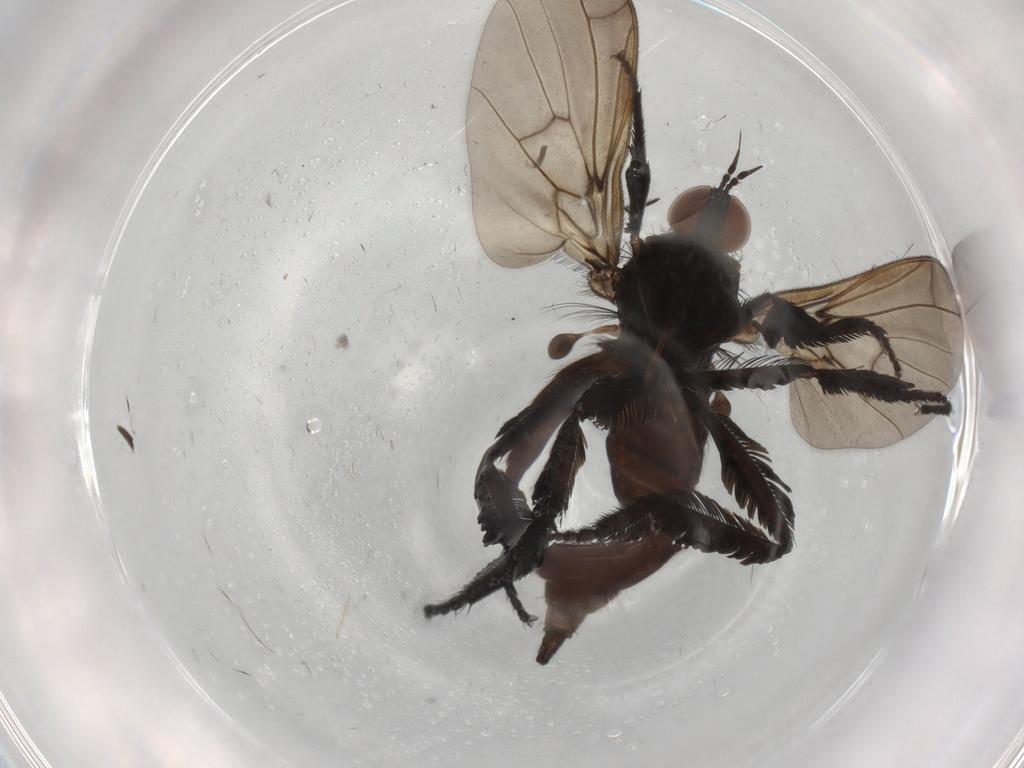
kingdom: Animalia
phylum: Arthropoda
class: Insecta
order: Diptera
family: Empididae
